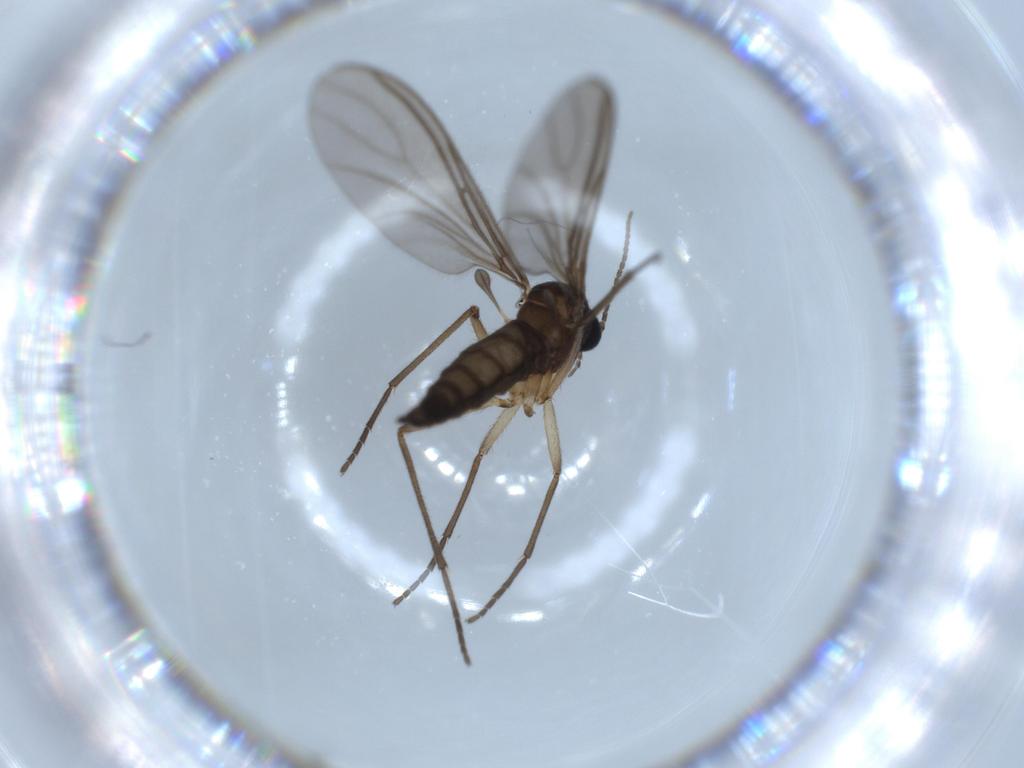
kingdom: Animalia
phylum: Arthropoda
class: Insecta
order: Diptera
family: Sciaridae
